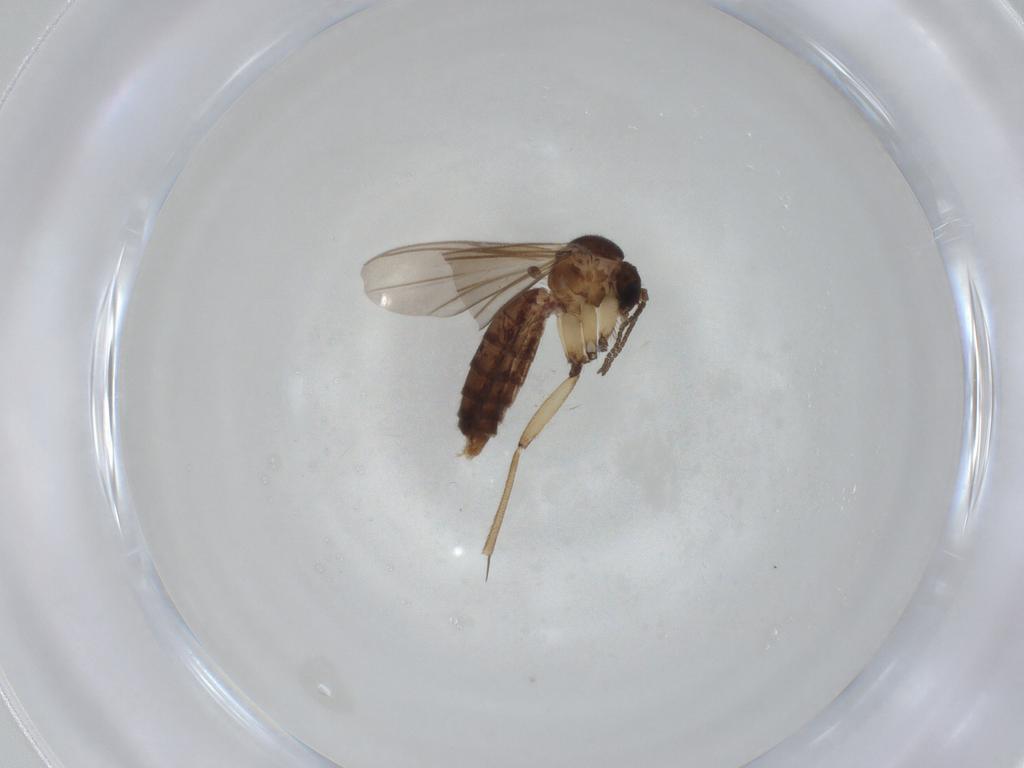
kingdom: Animalia
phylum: Arthropoda
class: Insecta
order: Diptera
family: Mycetophilidae
